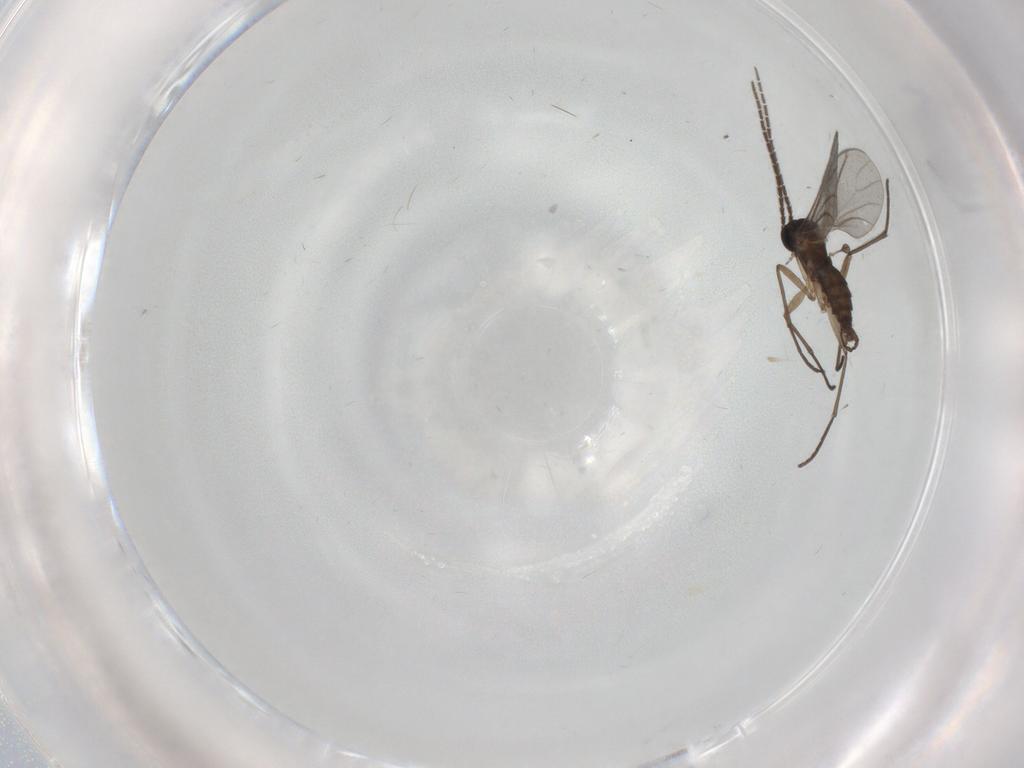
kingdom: Animalia
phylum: Arthropoda
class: Insecta
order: Diptera
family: Sciaridae
